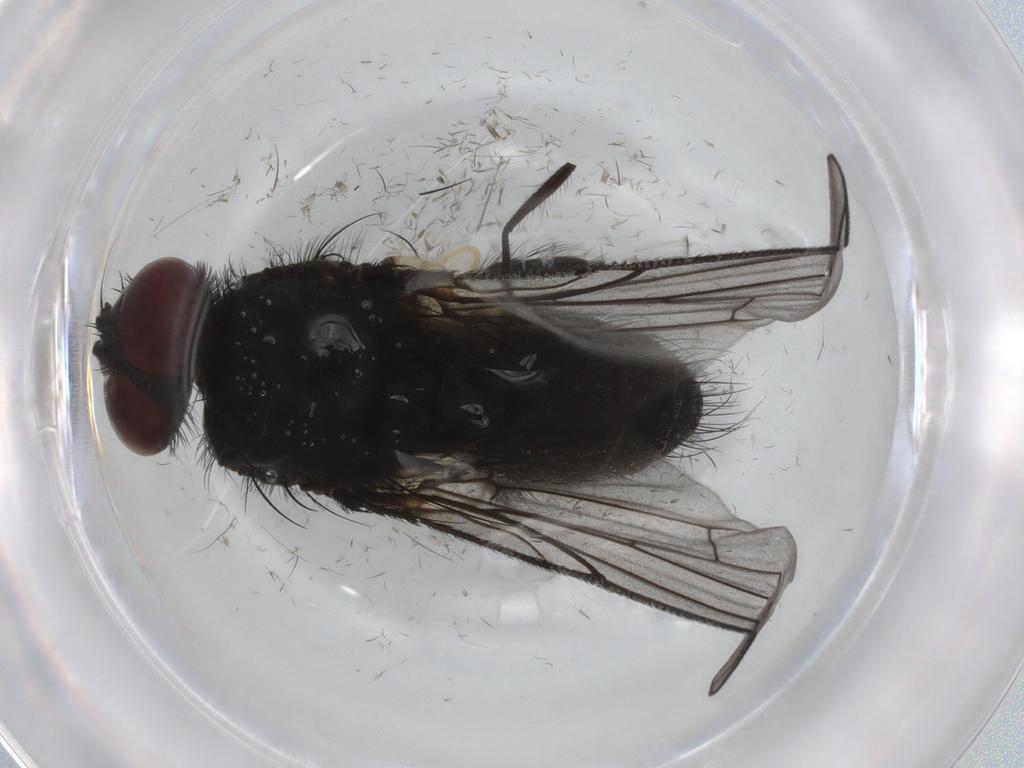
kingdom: Animalia
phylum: Arthropoda
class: Insecta
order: Diptera
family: Muscidae
